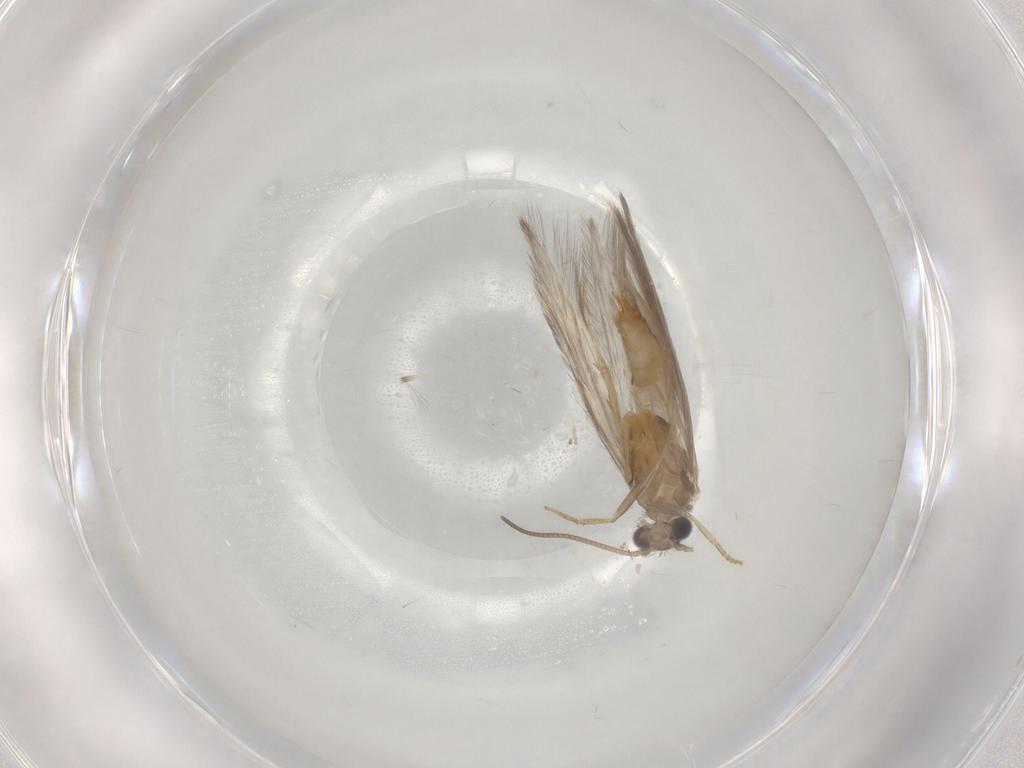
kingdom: Animalia
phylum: Arthropoda
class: Insecta
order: Trichoptera
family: Hydroptilidae
